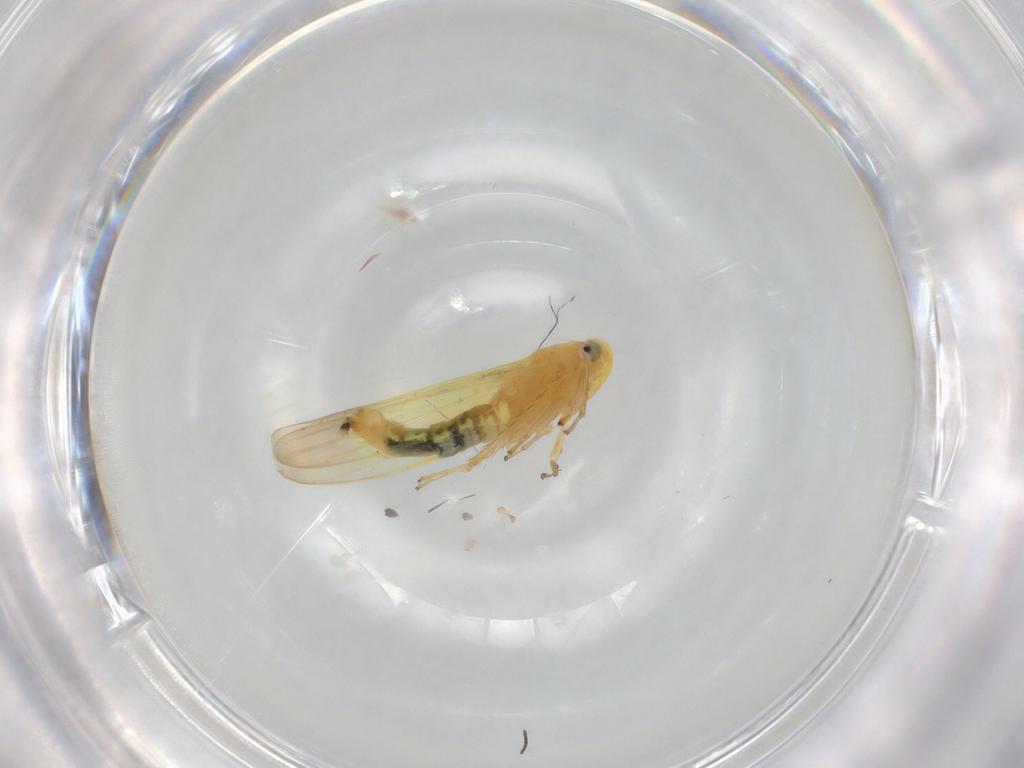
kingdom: Animalia
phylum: Arthropoda
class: Insecta
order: Hemiptera
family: Cicadellidae
